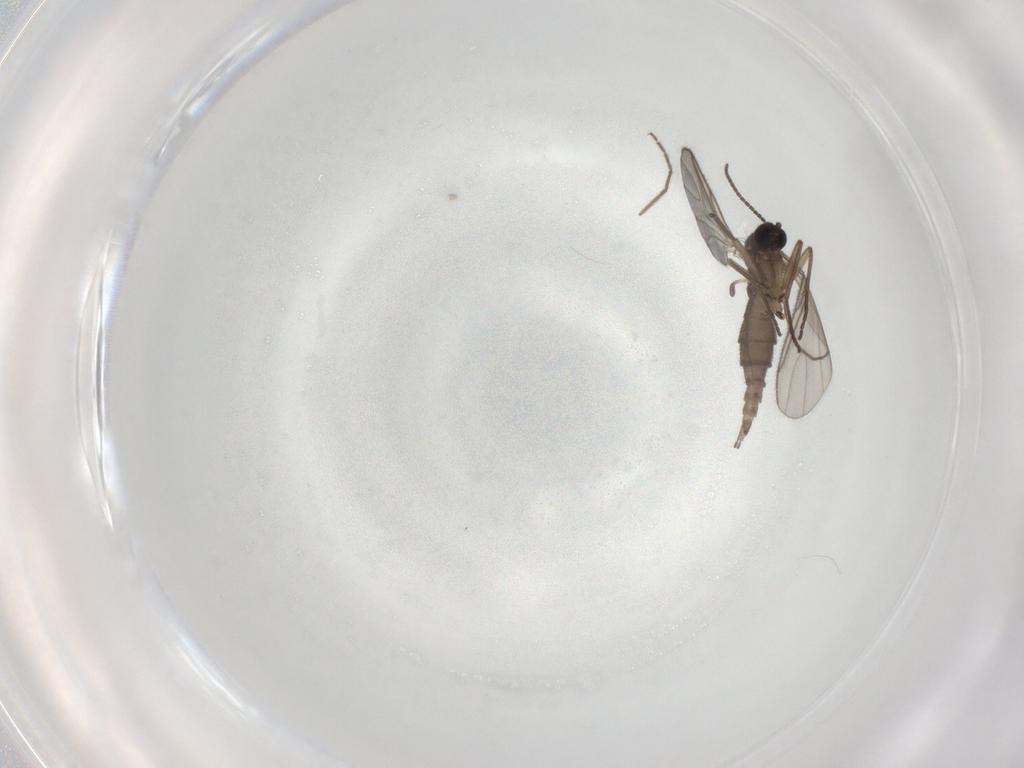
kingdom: Animalia
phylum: Arthropoda
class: Insecta
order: Diptera
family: Sciaridae
